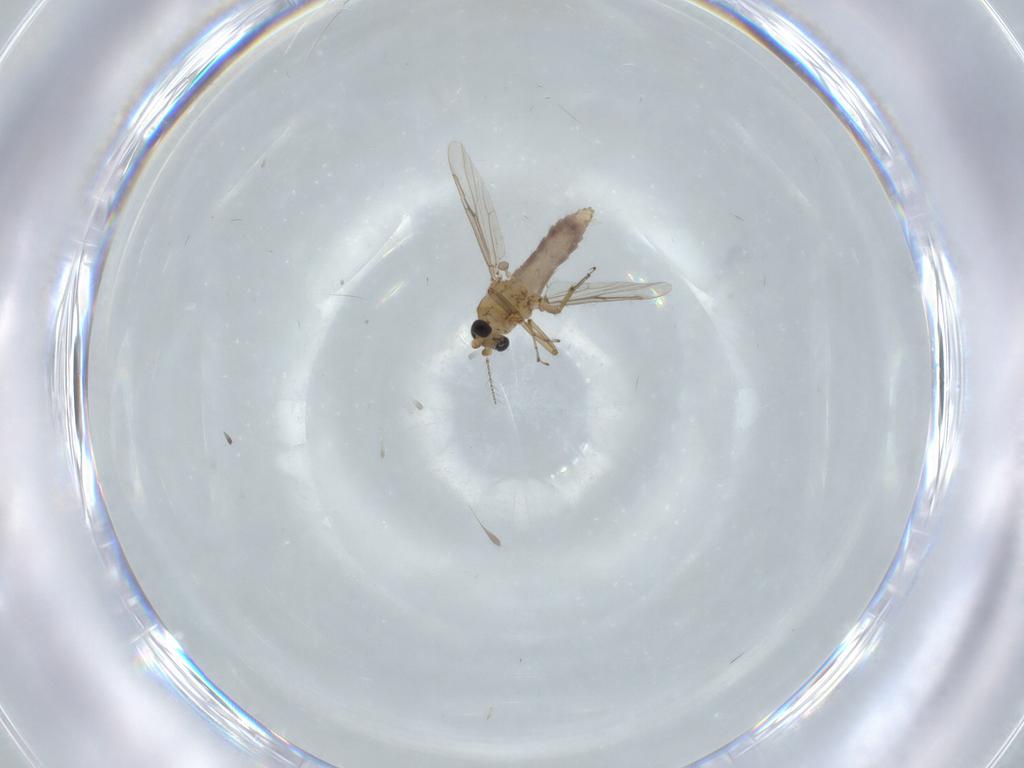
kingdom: Animalia
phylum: Arthropoda
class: Insecta
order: Diptera
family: Ceratopogonidae
